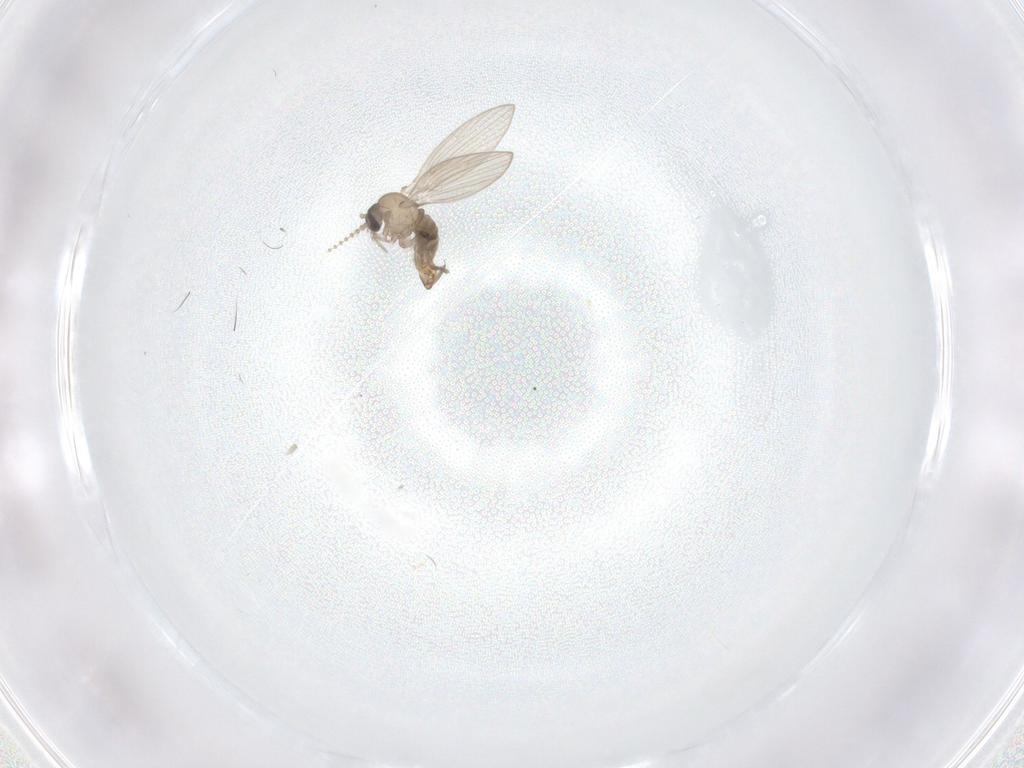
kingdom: Animalia
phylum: Arthropoda
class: Insecta
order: Diptera
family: Psychodidae
